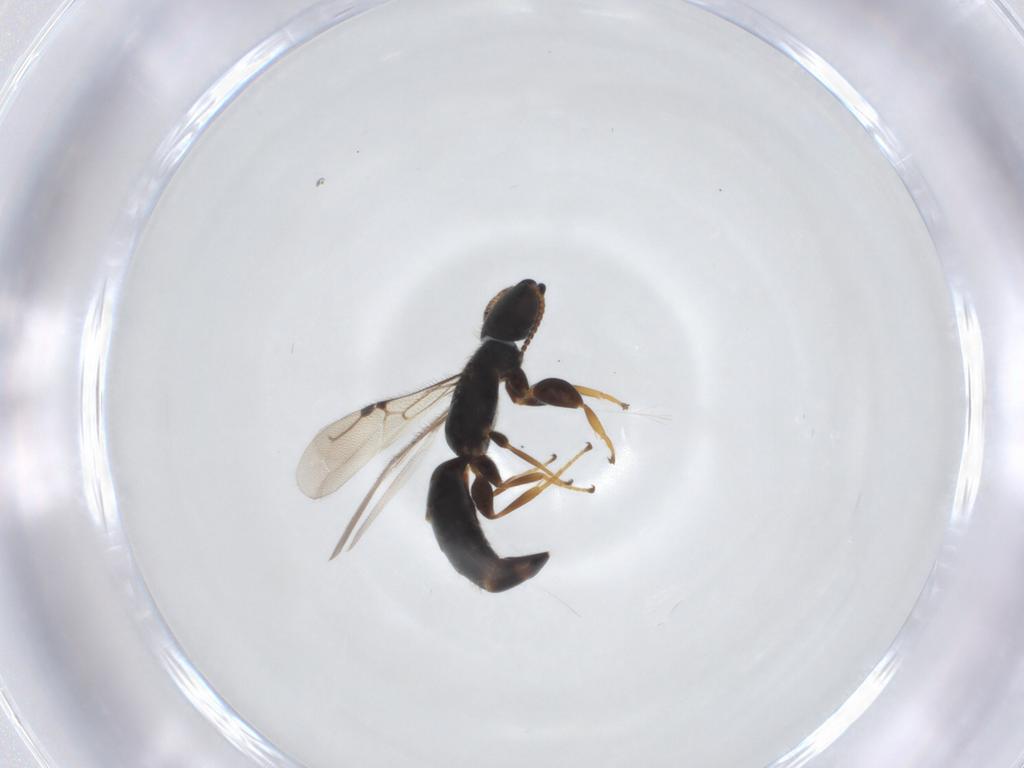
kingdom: Animalia
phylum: Arthropoda
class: Insecta
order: Hymenoptera
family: Bethylidae
